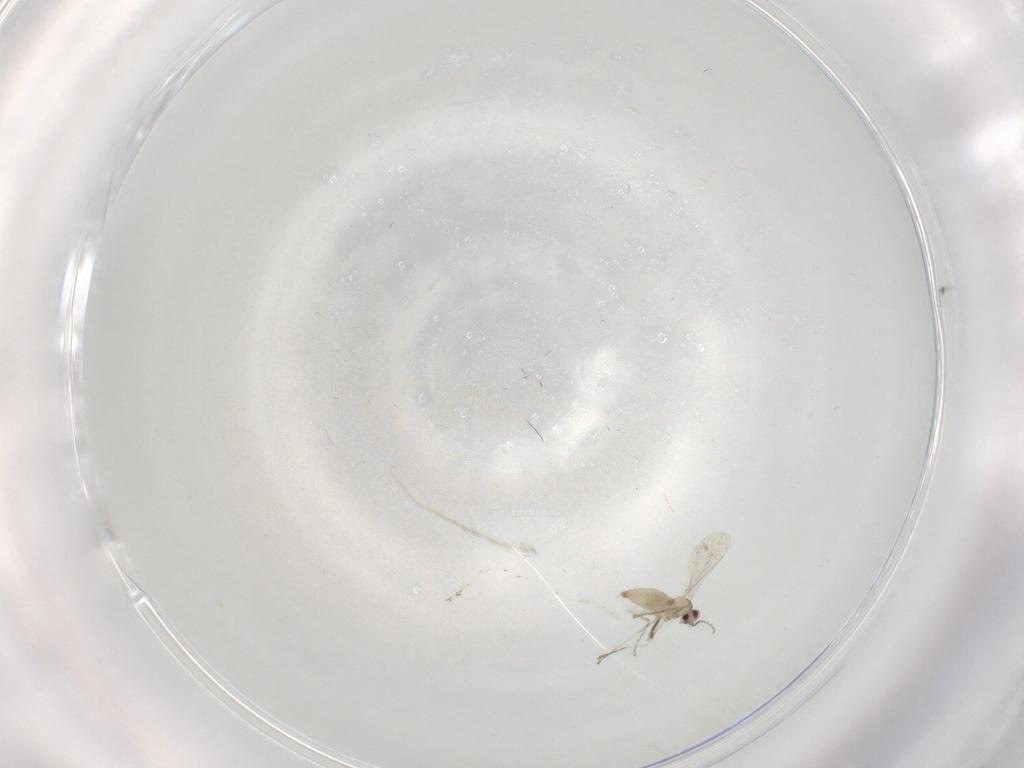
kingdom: Animalia
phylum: Arthropoda
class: Insecta
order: Diptera
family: Cecidomyiidae
